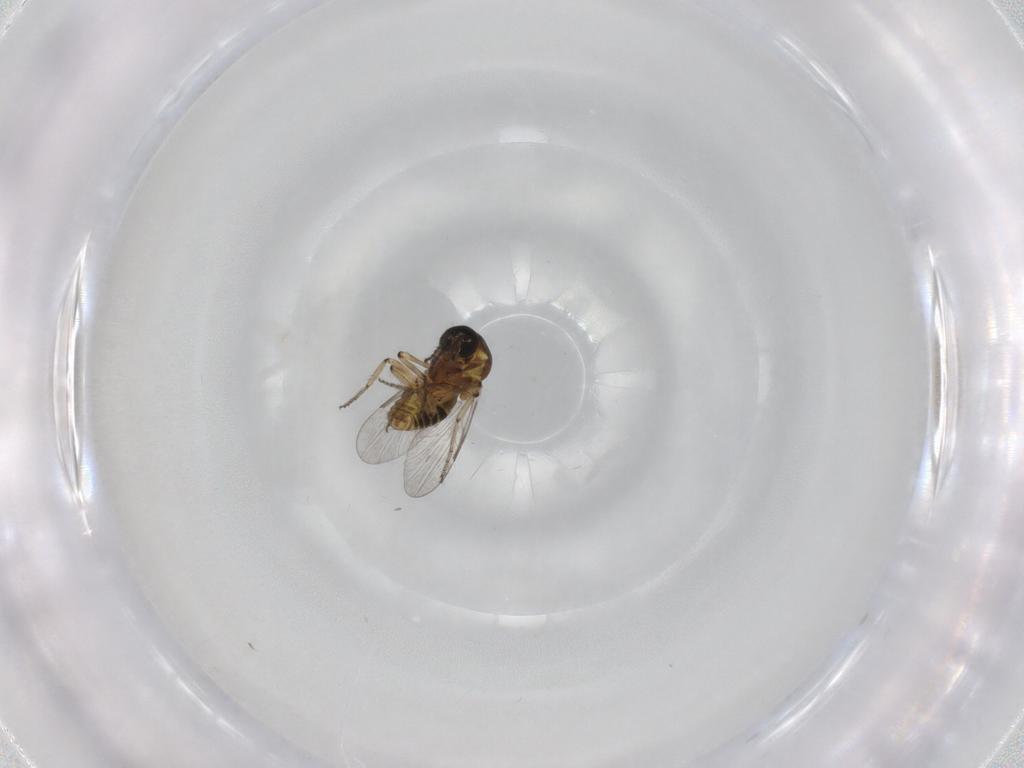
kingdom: Animalia
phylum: Arthropoda
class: Insecta
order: Diptera
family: Ceratopogonidae
